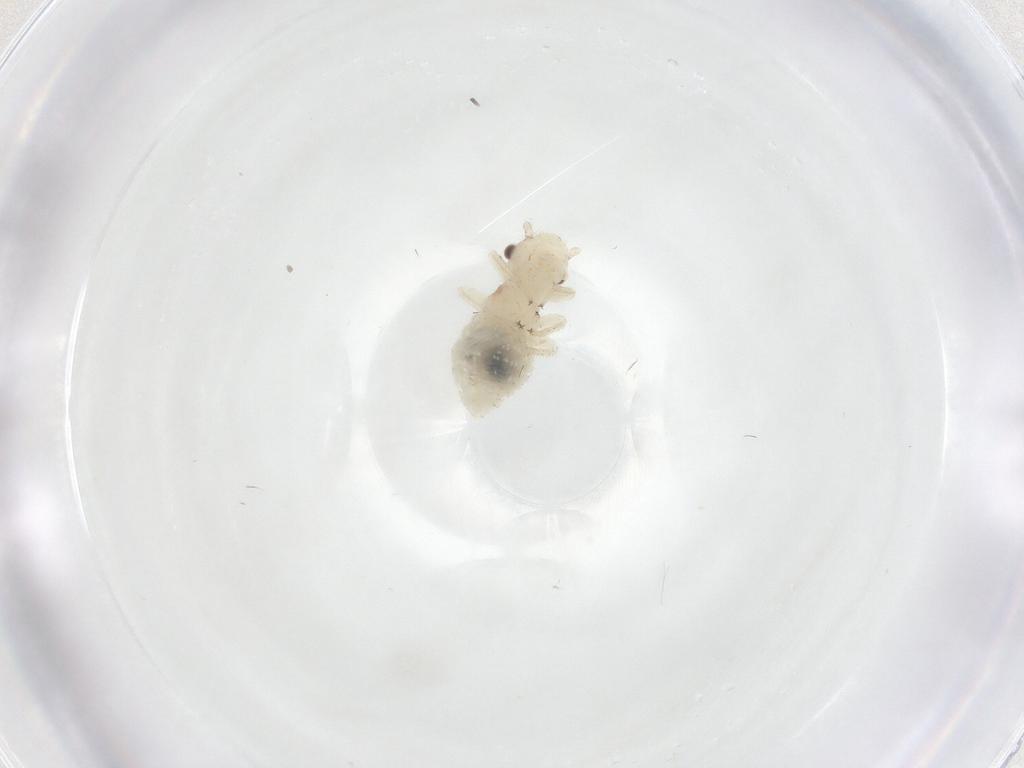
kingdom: Animalia
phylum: Arthropoda
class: Insecta
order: Psocodea
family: Amphipsocidae
